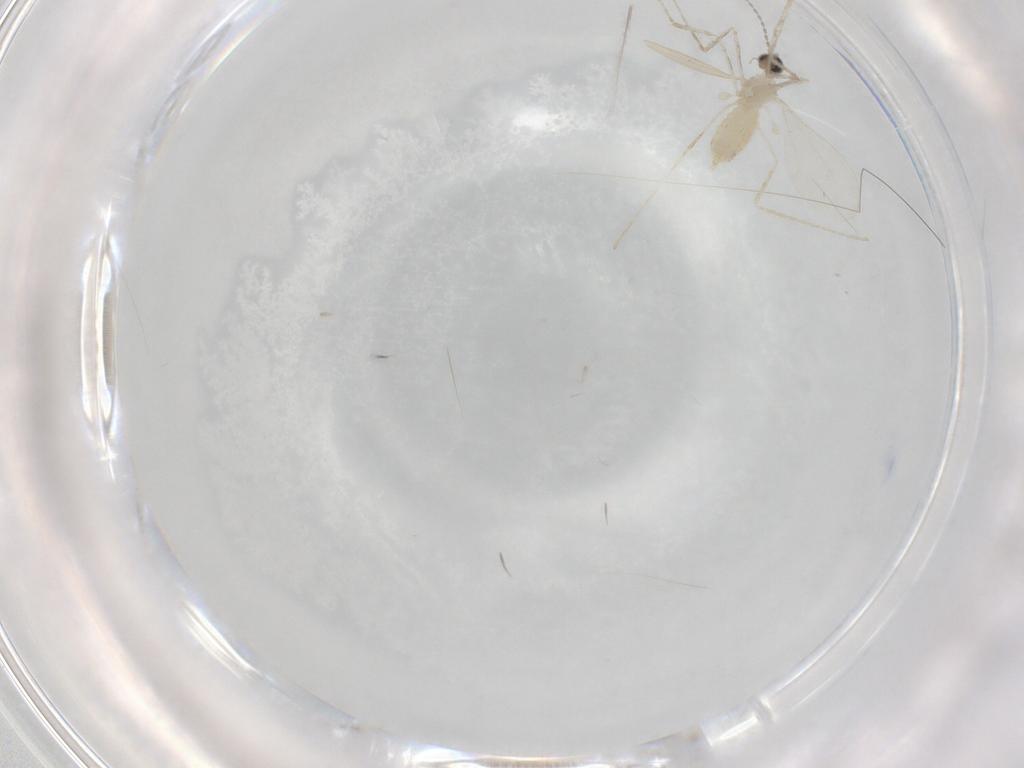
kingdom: Animalia
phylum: Arthropoda
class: Insecta
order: Diptera
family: Cecidomyiidae
